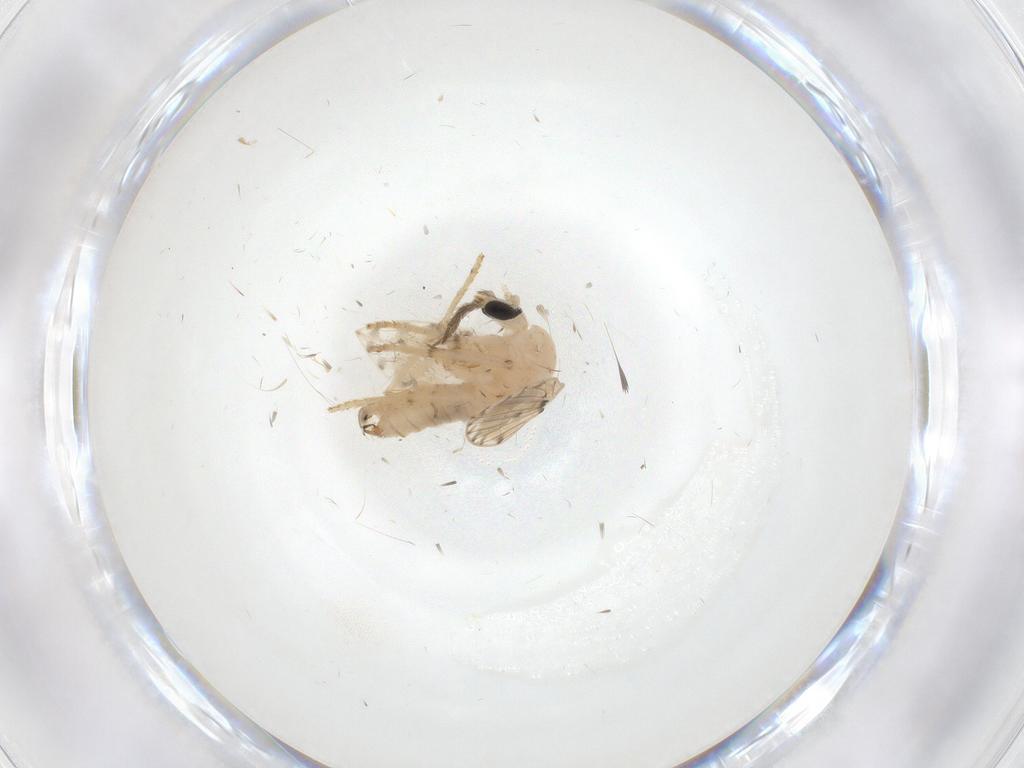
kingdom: Animalia
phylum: Arthropoda
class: Insecta
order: Diptera
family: Psychodidae
